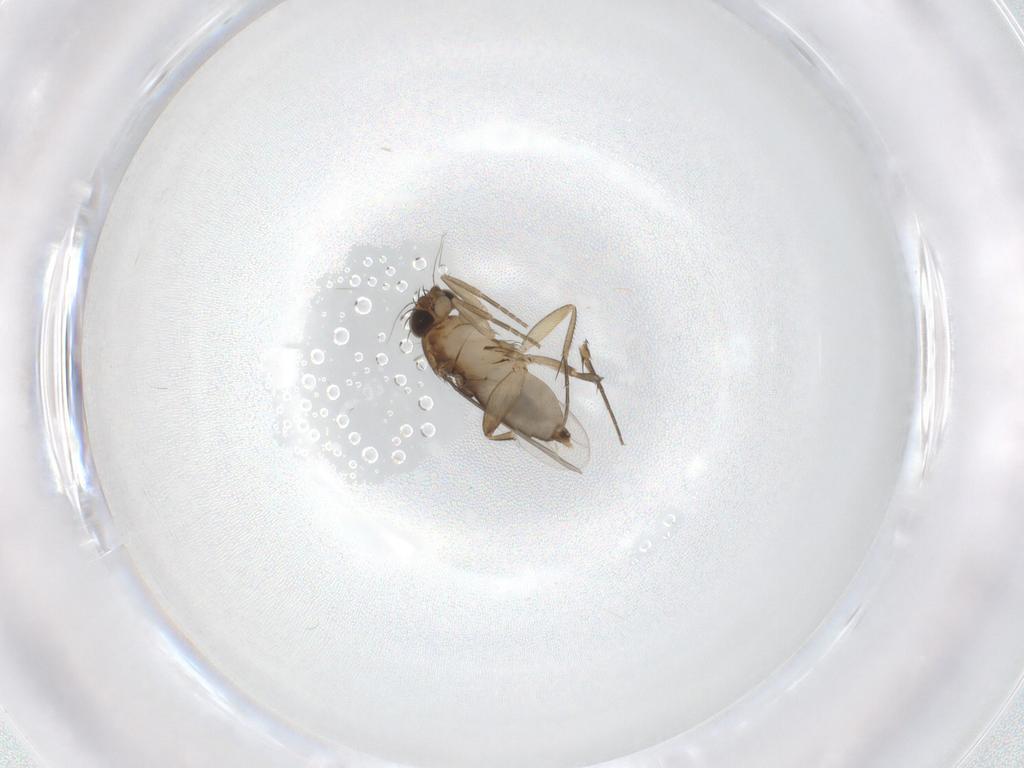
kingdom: Animalia
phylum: Arthropoda
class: Insecta
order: Diptera
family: Phoridae
